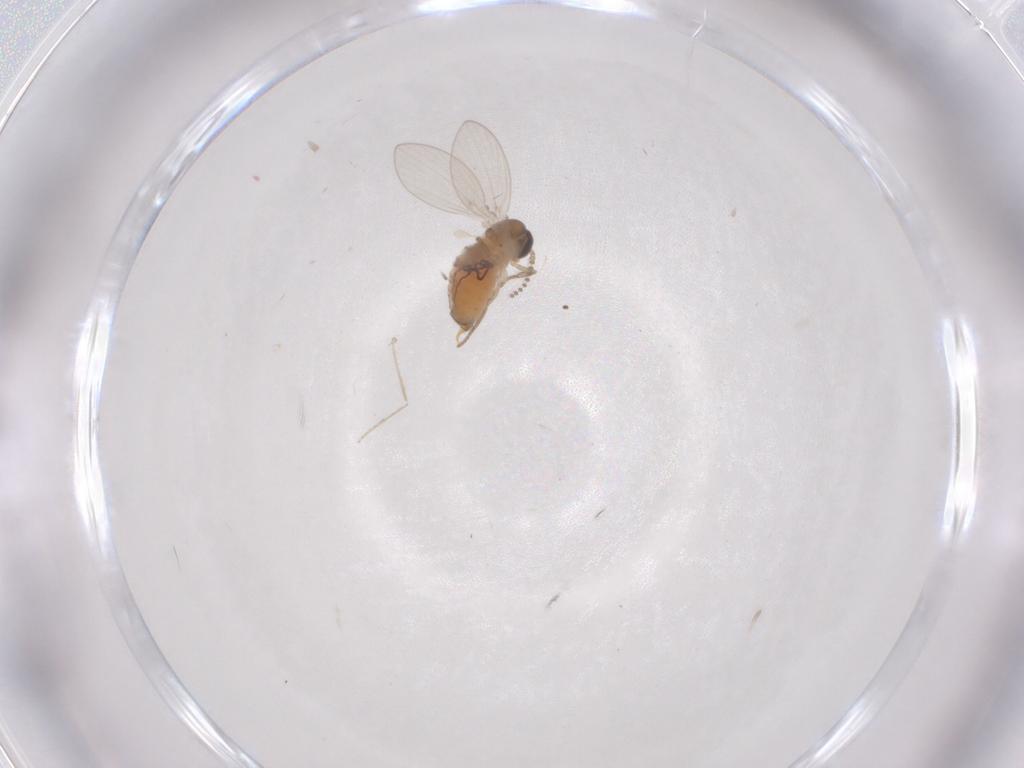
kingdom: Animalia
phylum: Arthropoda
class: Insecta
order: Diptera
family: Psychodidae
